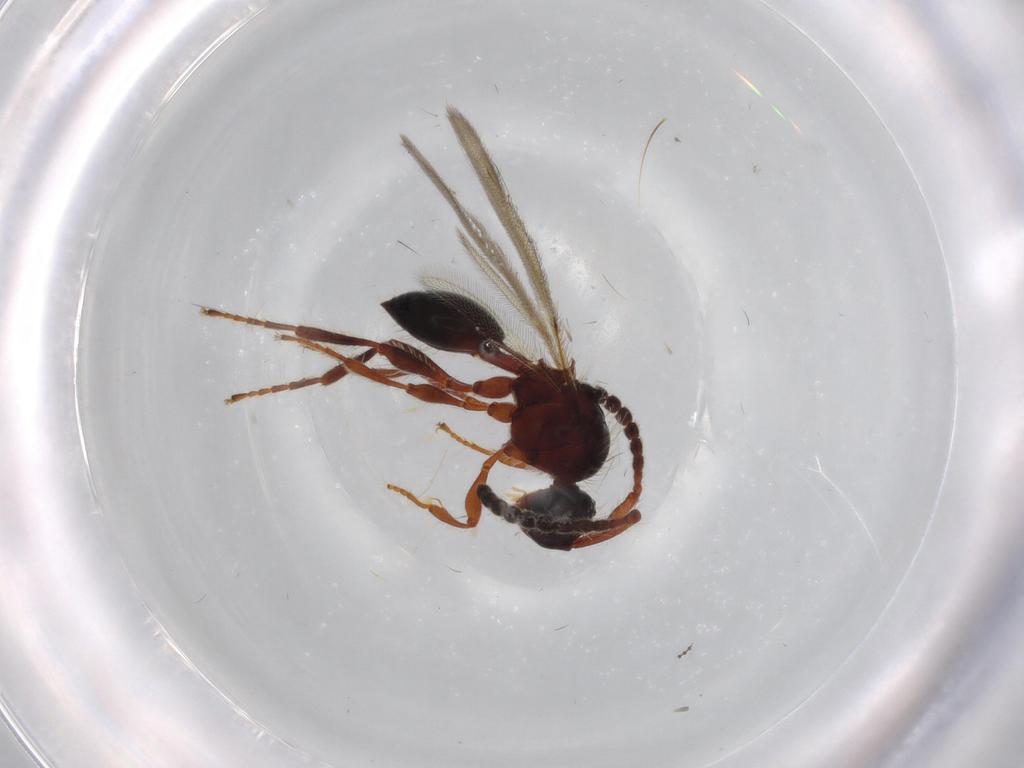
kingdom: Animalia
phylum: Arthropoda
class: Insecta
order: Hymenoptera
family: Diapriidae
